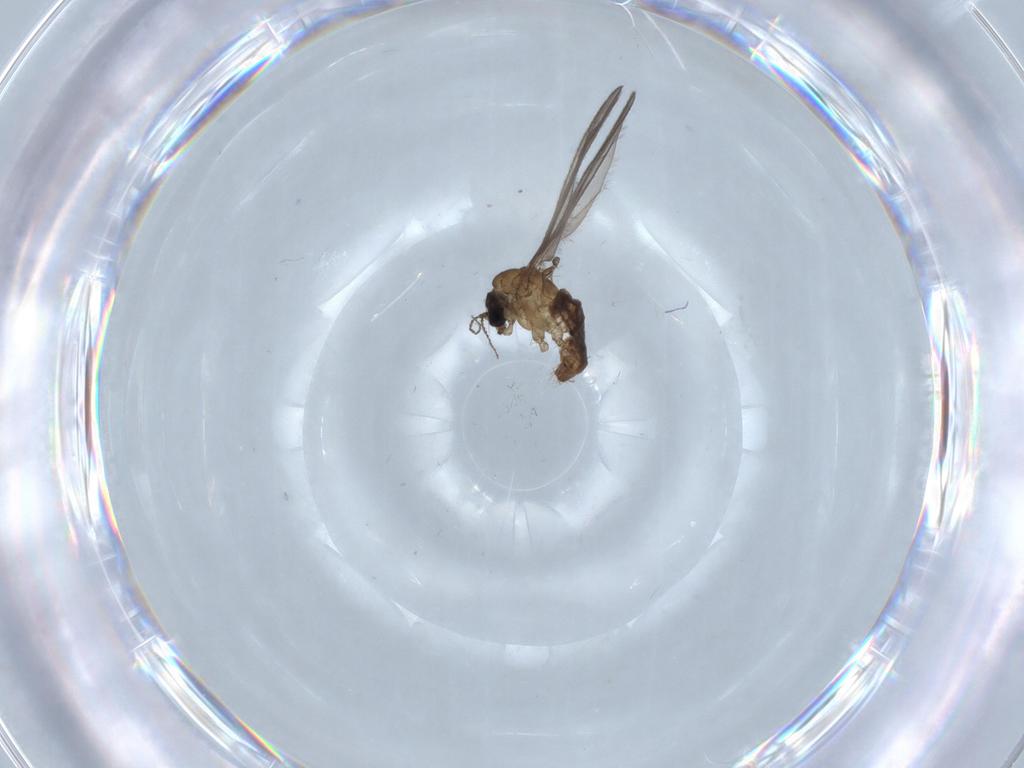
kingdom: Animalia
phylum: Arthropoda
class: Insecta
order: Diptera
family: Limoniidae
